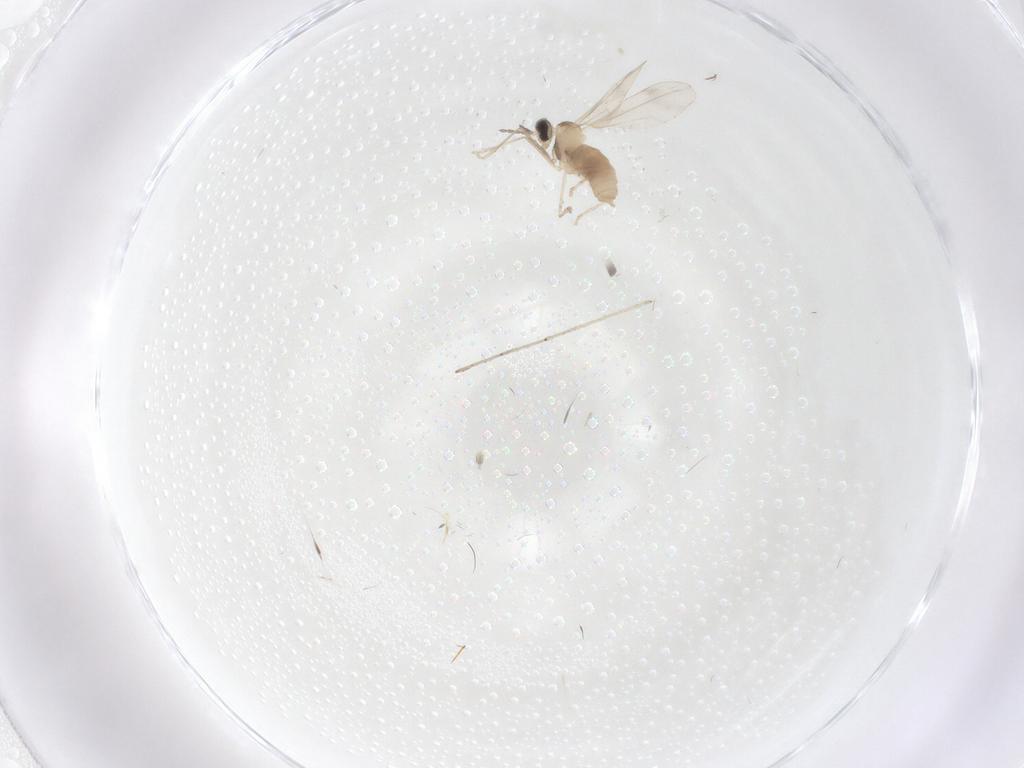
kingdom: Animalia
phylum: Arthropoda
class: Insecta
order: Diptera
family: Cecidomyiidae
